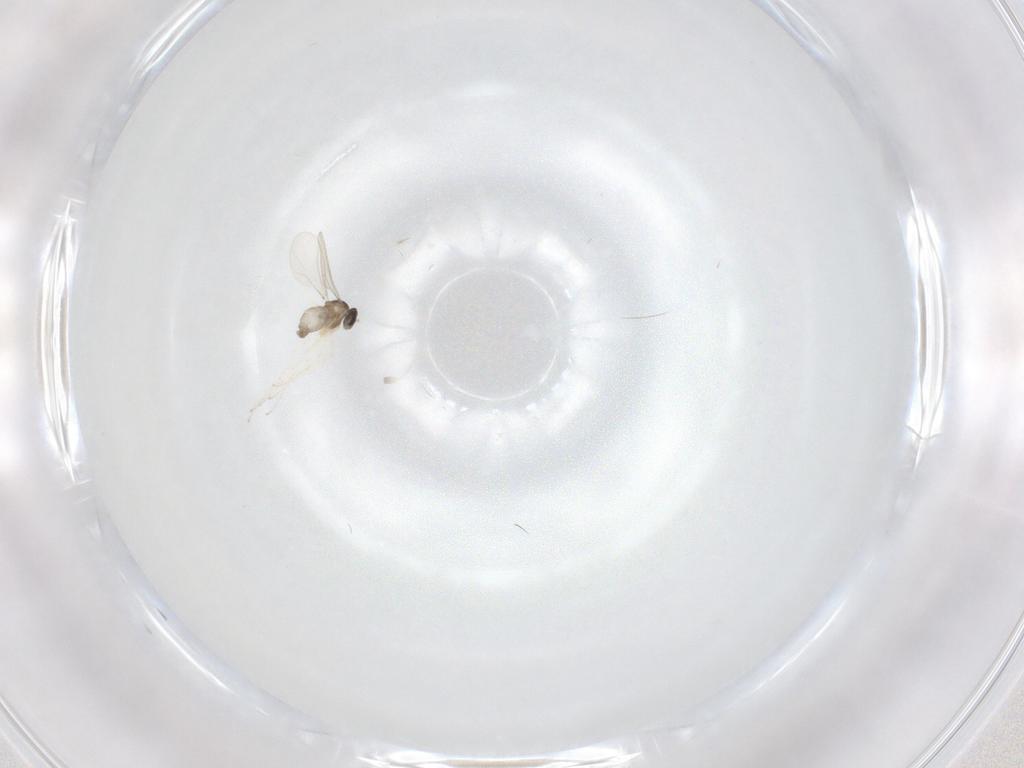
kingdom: Animalia
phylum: Arthropoda
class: Insecta
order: Diptera
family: Cecidomyiidae
